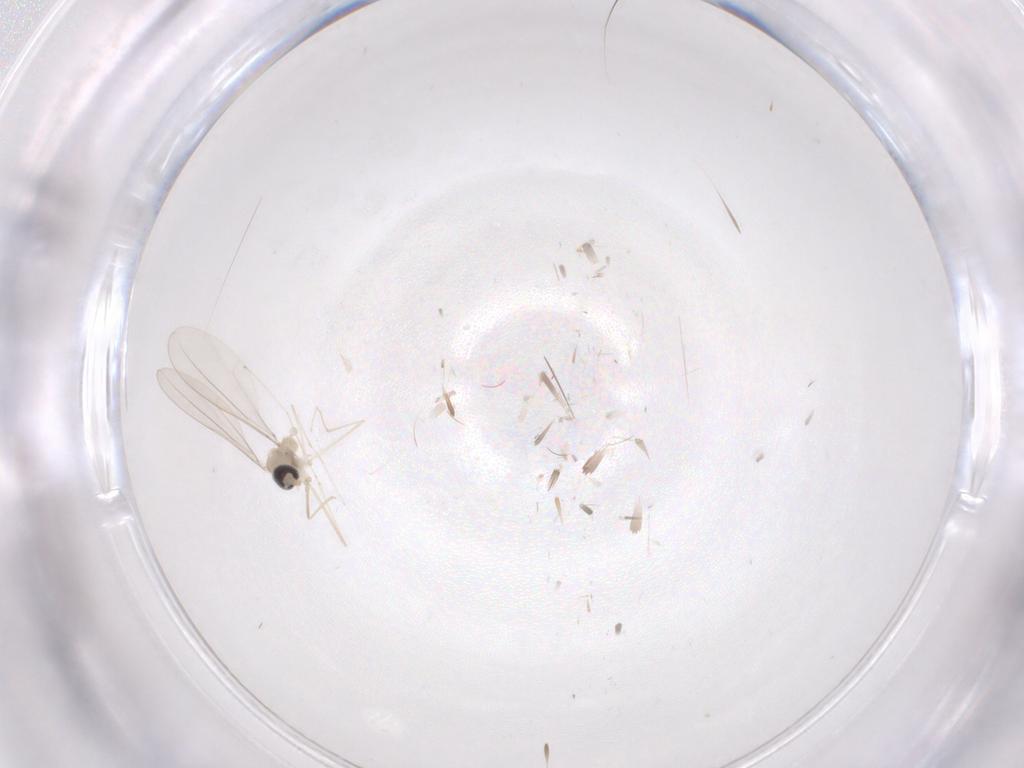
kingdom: Animalia
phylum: Arthropoda
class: Insecta
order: Diptera
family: Cecidomyiidae
